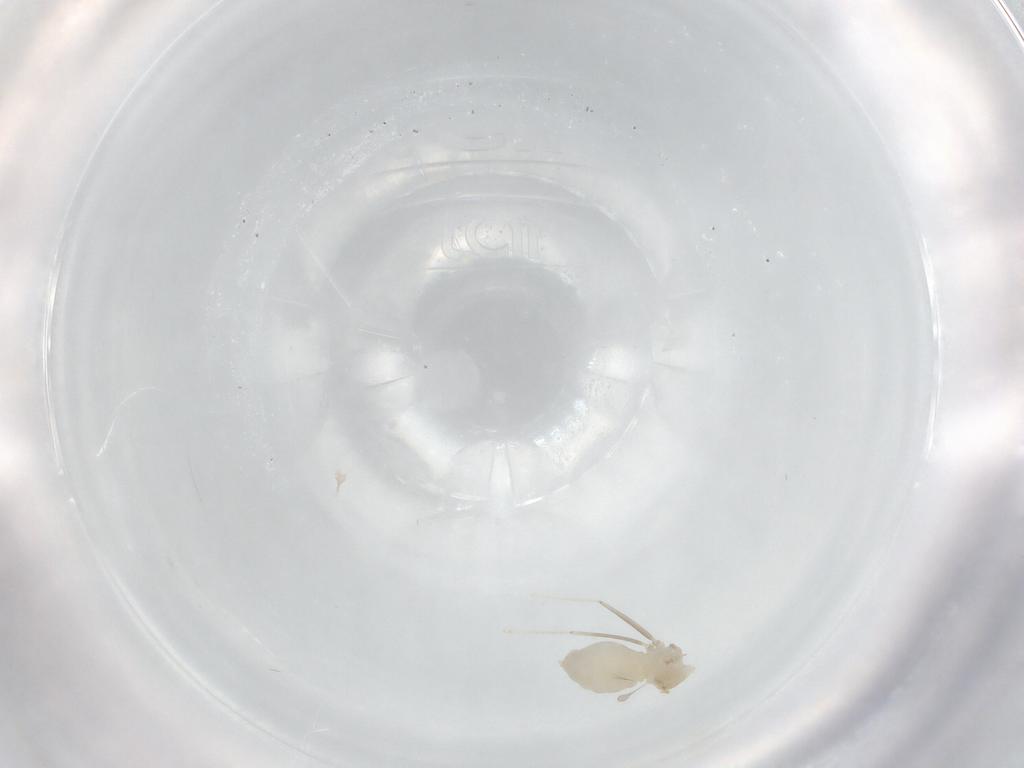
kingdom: Animalia
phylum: Arthropoda
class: Insecta
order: Diptera
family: Cecidomyiidae
